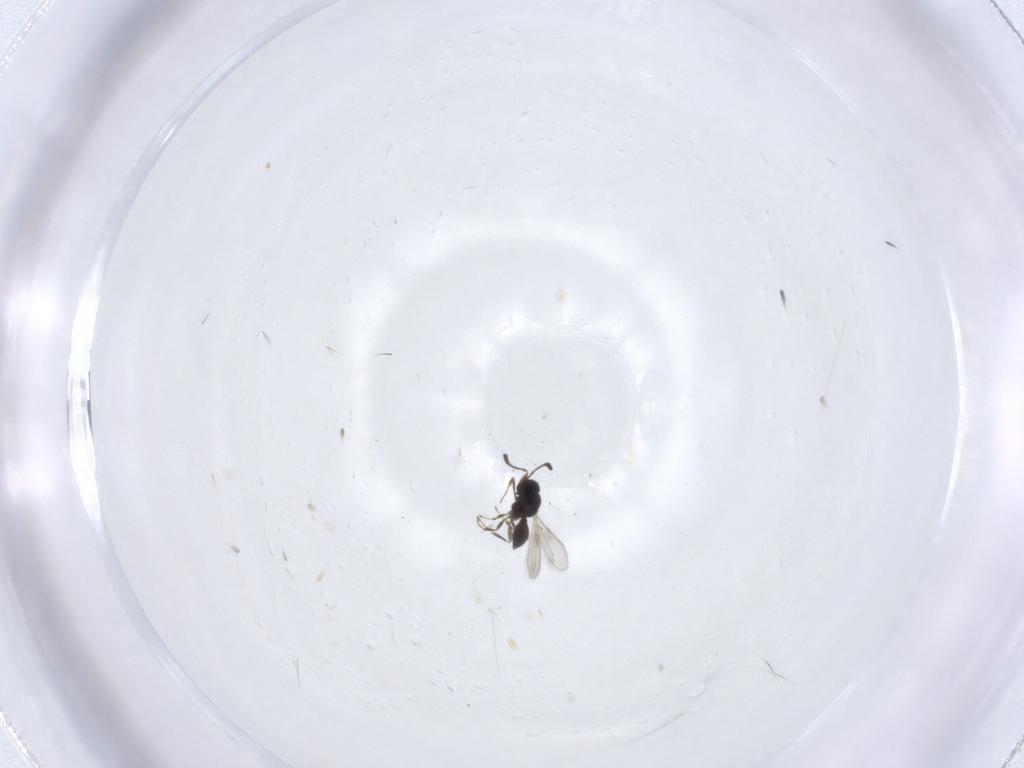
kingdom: Animalia
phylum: Arthropoda
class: Insecta
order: Hymenoptera
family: Scelionidae
